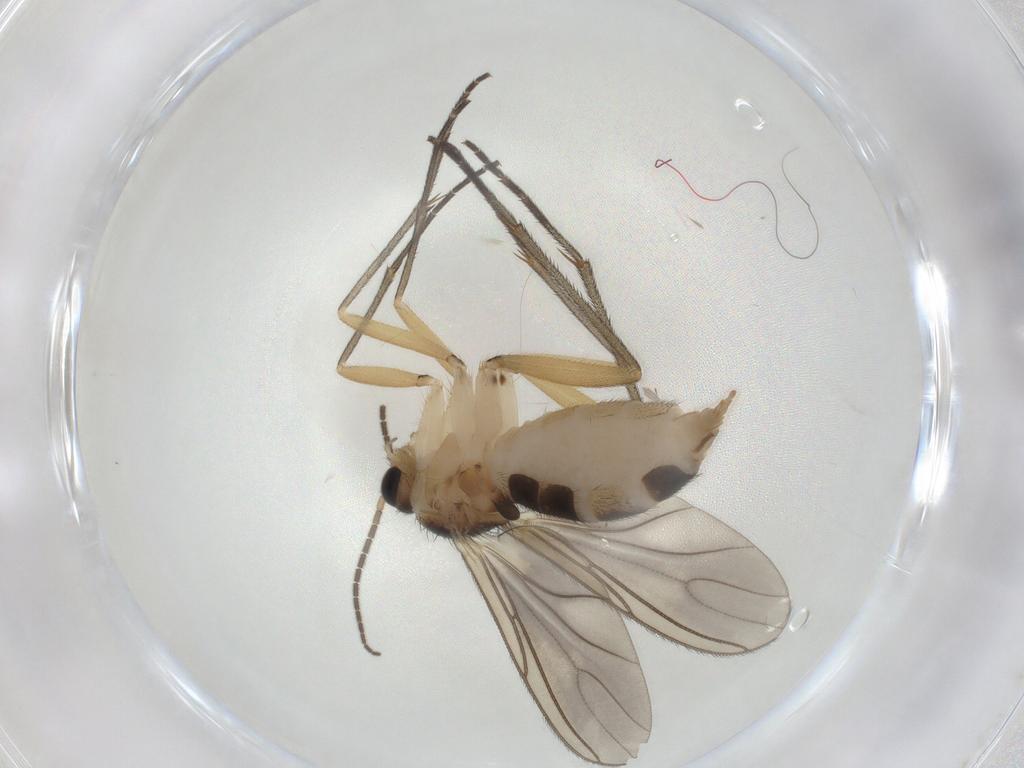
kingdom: Animalia
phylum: Arthropoda
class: Insecta
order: Diptera
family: Sciaridae
